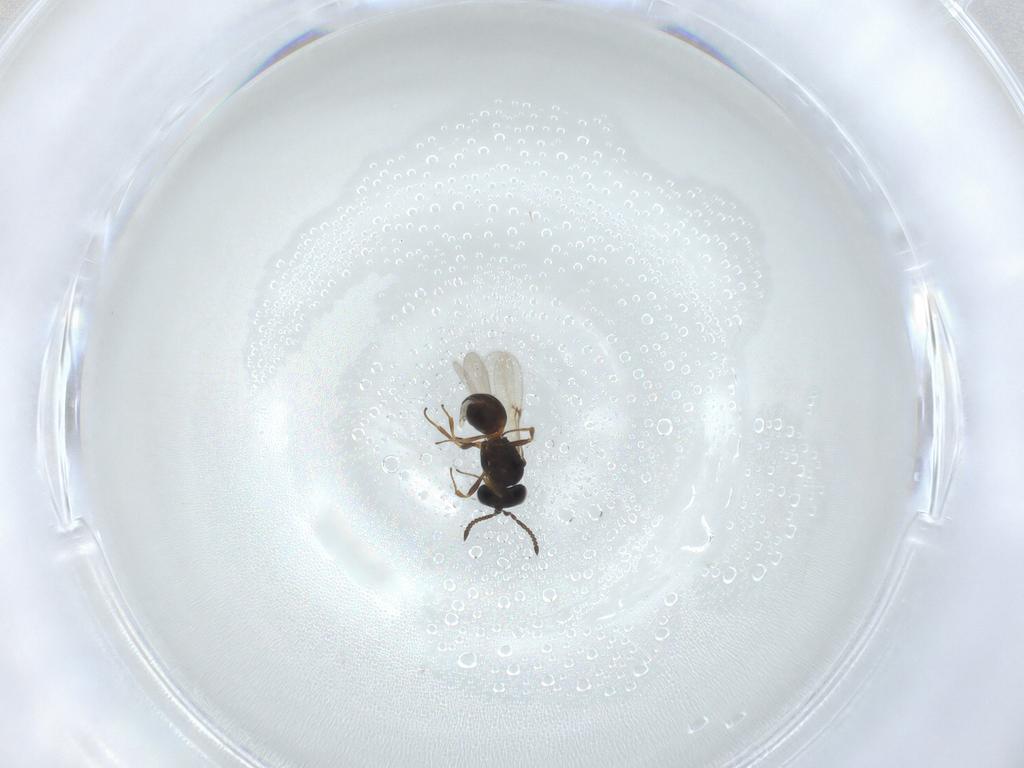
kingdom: Animalia
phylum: Arthropoda
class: Arachnida
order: Araneae
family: Pholcidae
